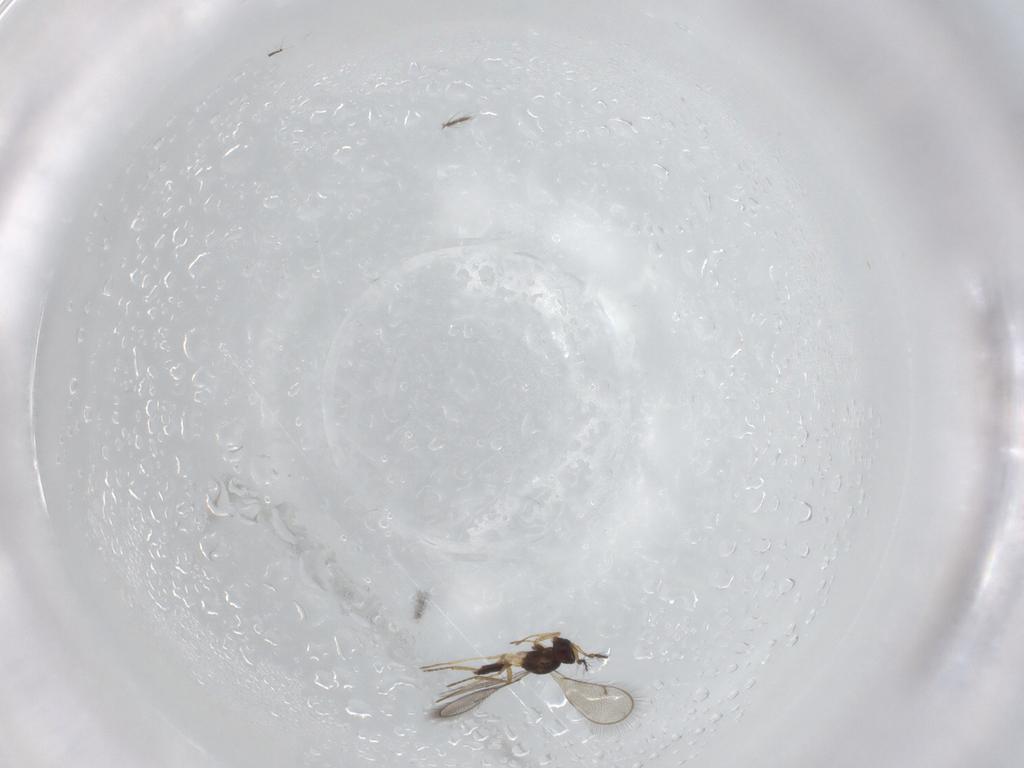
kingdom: Animalia
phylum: Arthropoda
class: Insecta
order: Hymenoptera
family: Eulophidae
